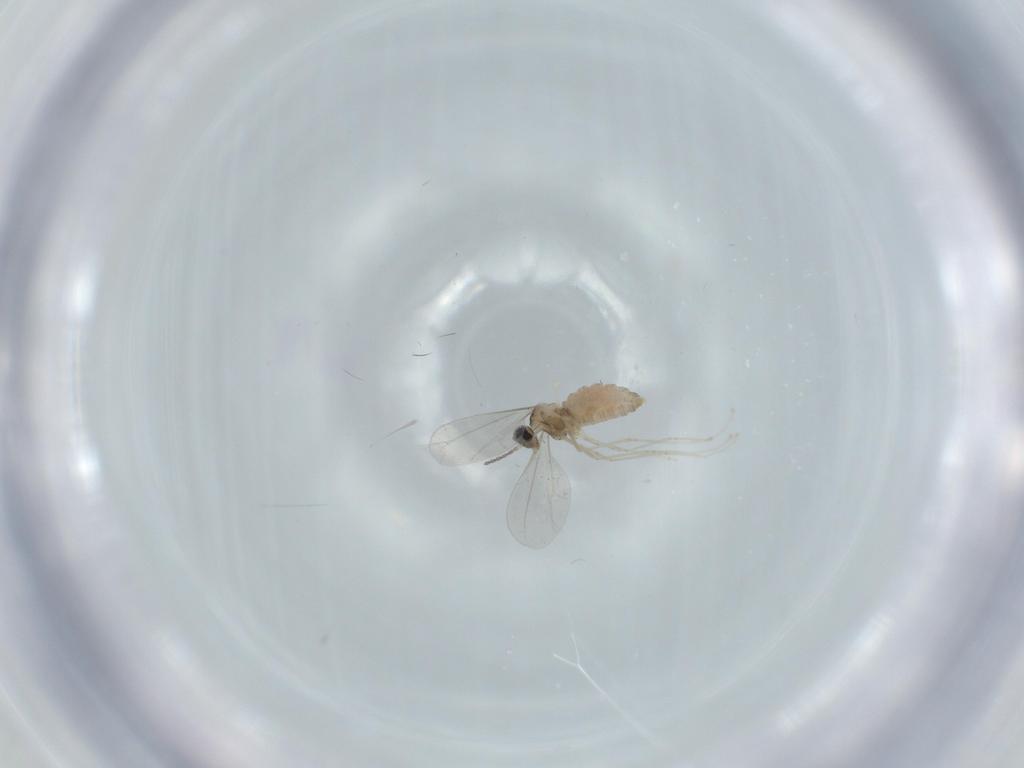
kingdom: Animalia
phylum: Arthropoda
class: Insecta
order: Diptera
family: Cecidomyiidae
